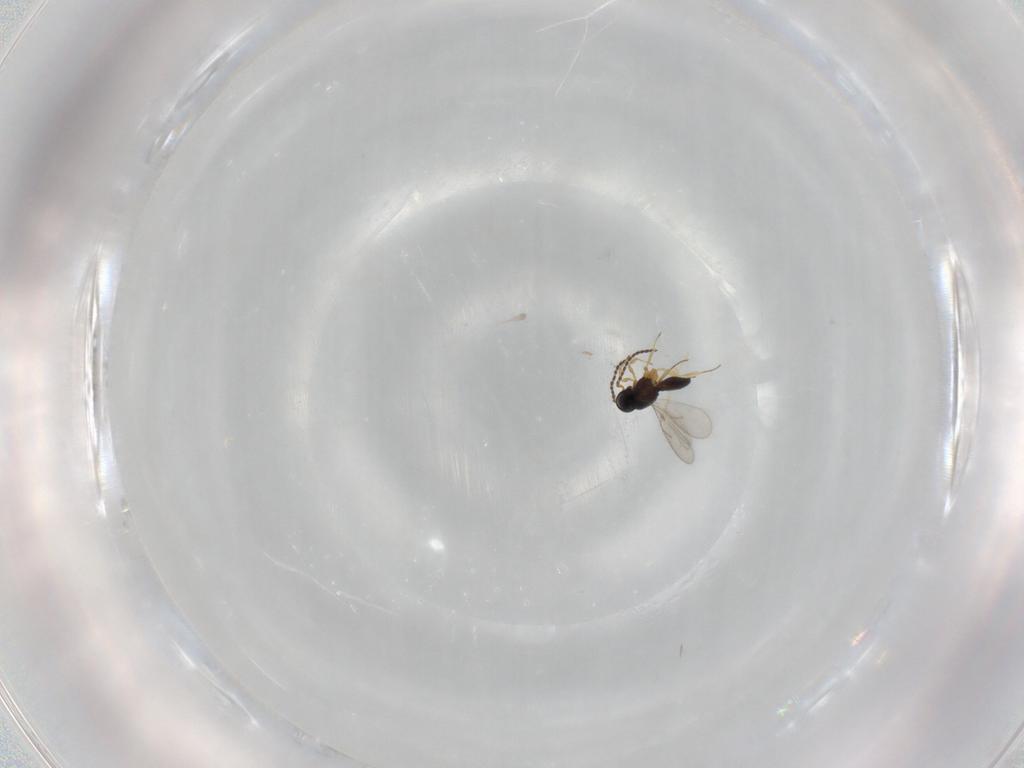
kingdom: Animalia
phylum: Arthropoda
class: Insecta
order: Hymenoptera
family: Scelionidae
